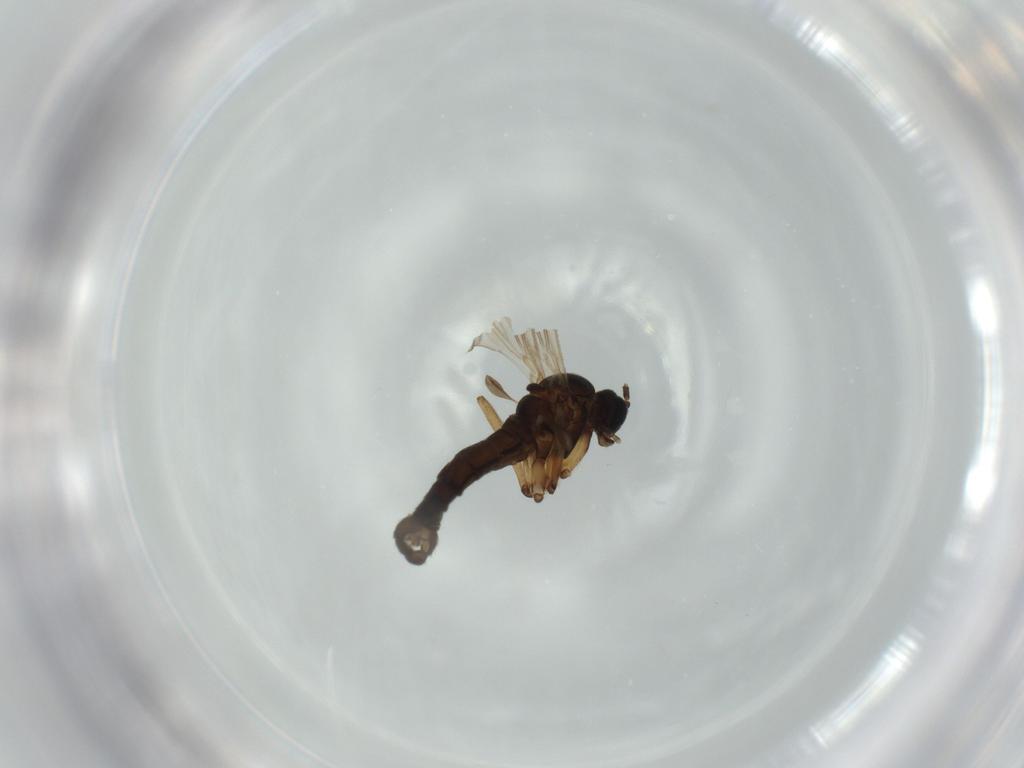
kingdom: Animalia
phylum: Arthropoda
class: Insecta
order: Diptera
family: Sciaridae
